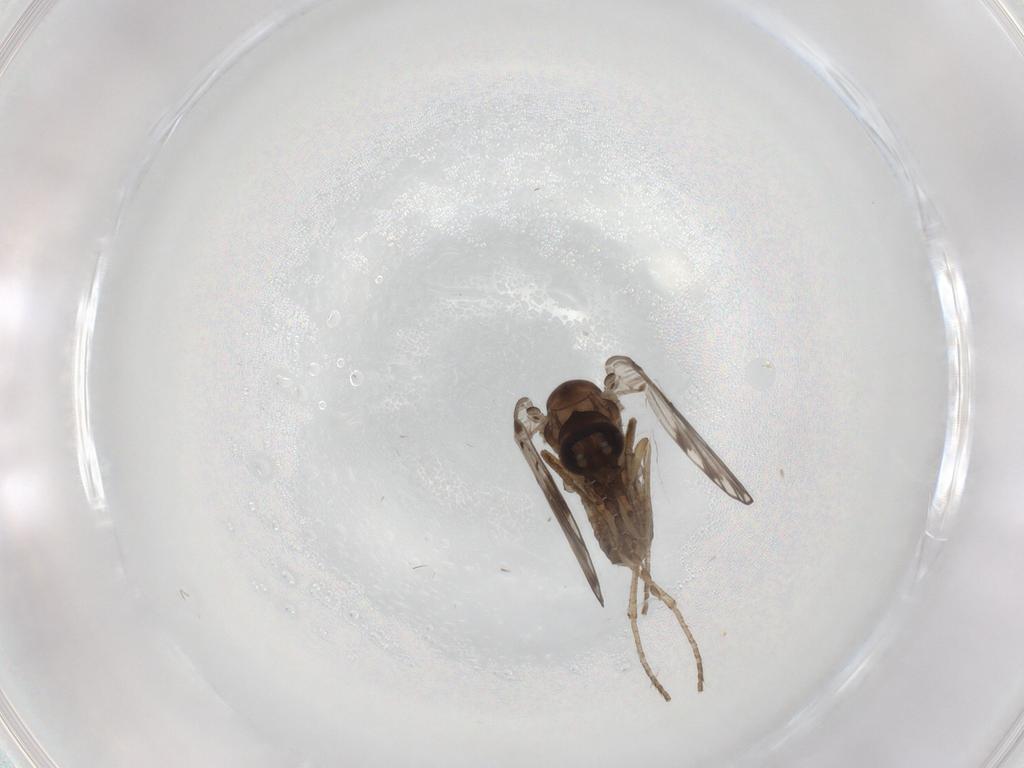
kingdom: Animalia
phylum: Arthropoda
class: Insecta
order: Diptera
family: Psychodidae
